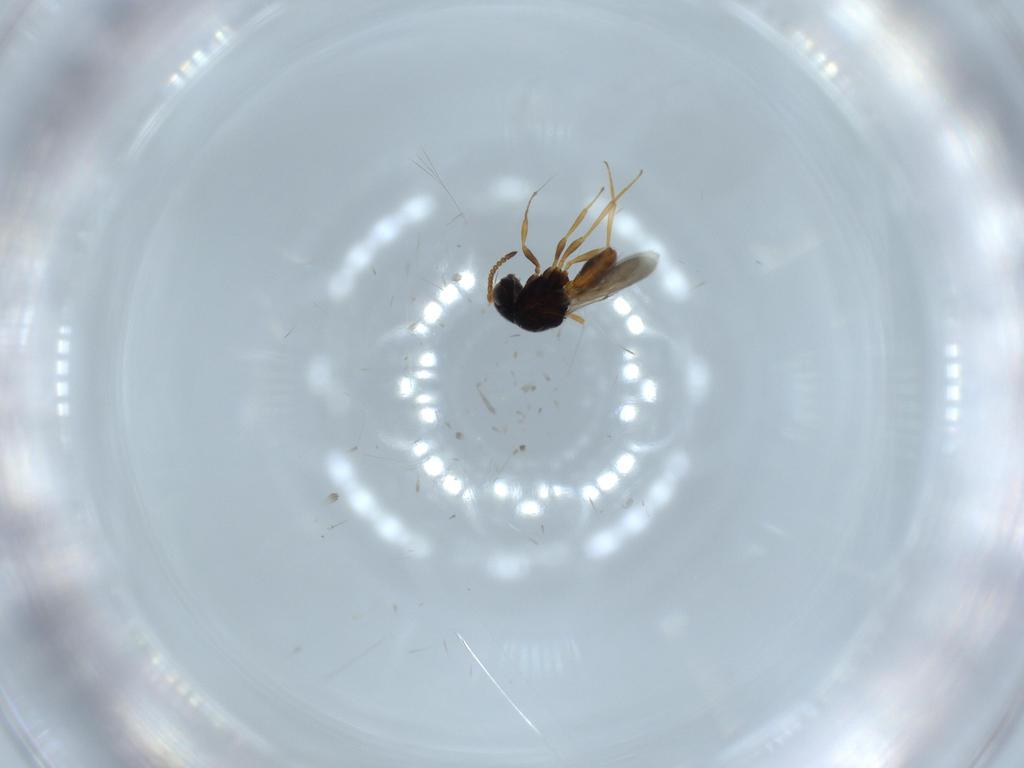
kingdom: Animalia
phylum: Arthropoda
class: Insecta
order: Hymenoptera
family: Scelionidae
